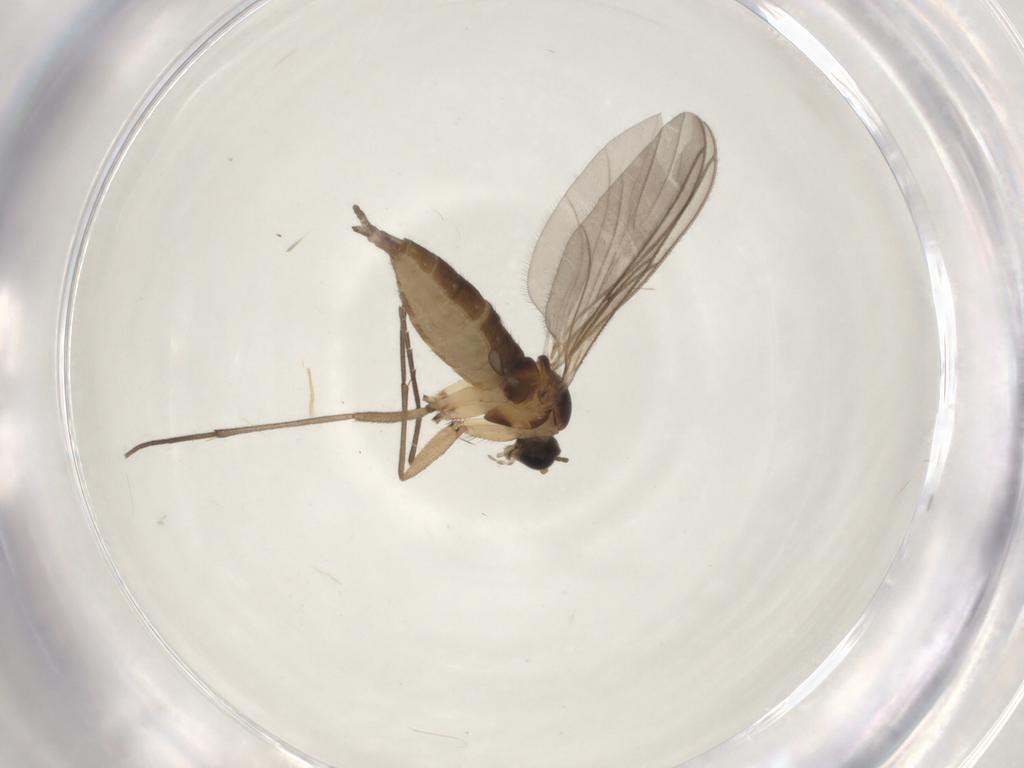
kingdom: Animalia
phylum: Arthropoda
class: Insecta
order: Diptera
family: Sciaridae
